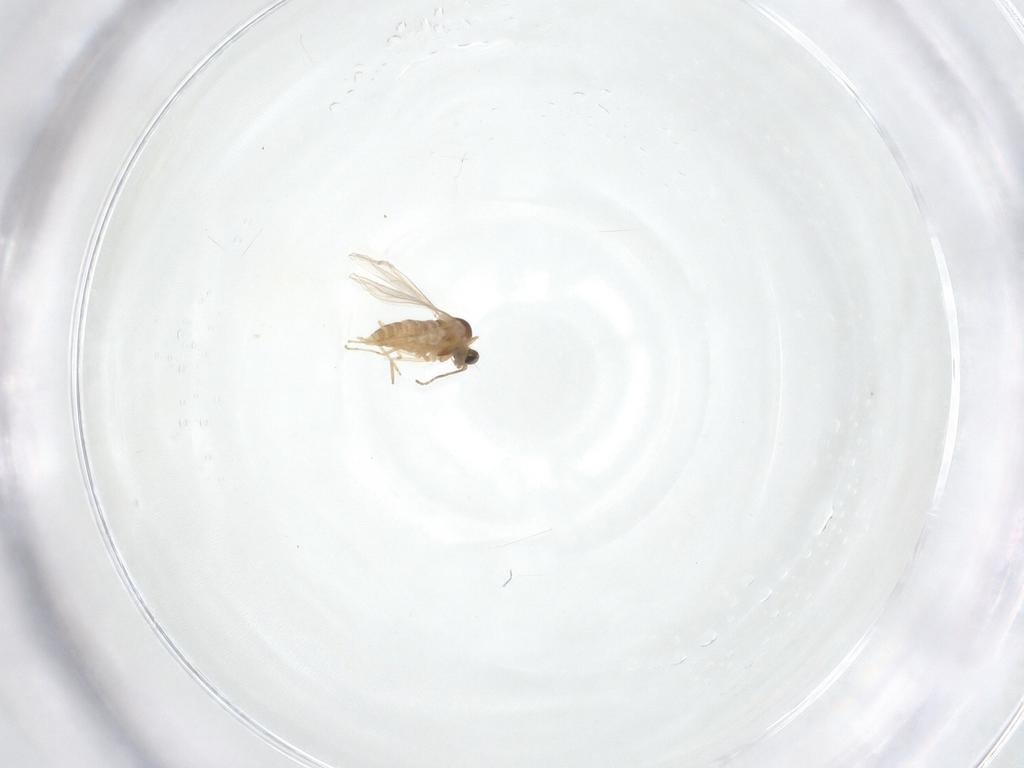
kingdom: Animalia
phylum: Arthropoda
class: Insecta
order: Diptera
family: Cecidomyiidae
